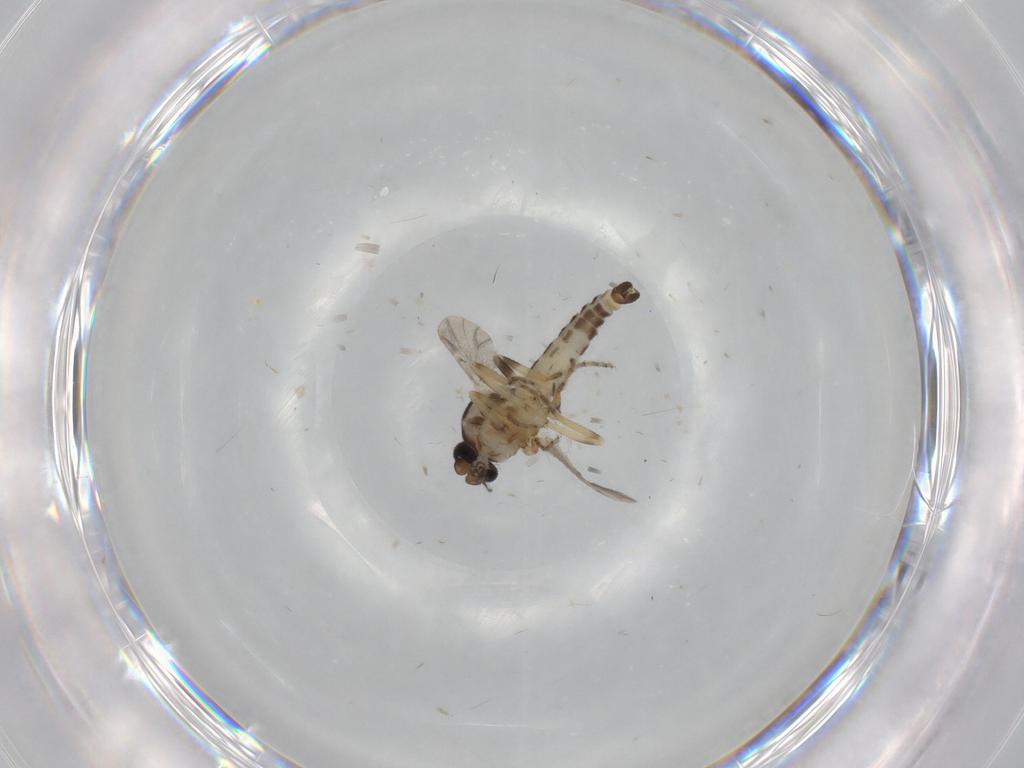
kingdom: Animalia
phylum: Arthropoda
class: Insecta
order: Diptera
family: Ceratopogonidae
